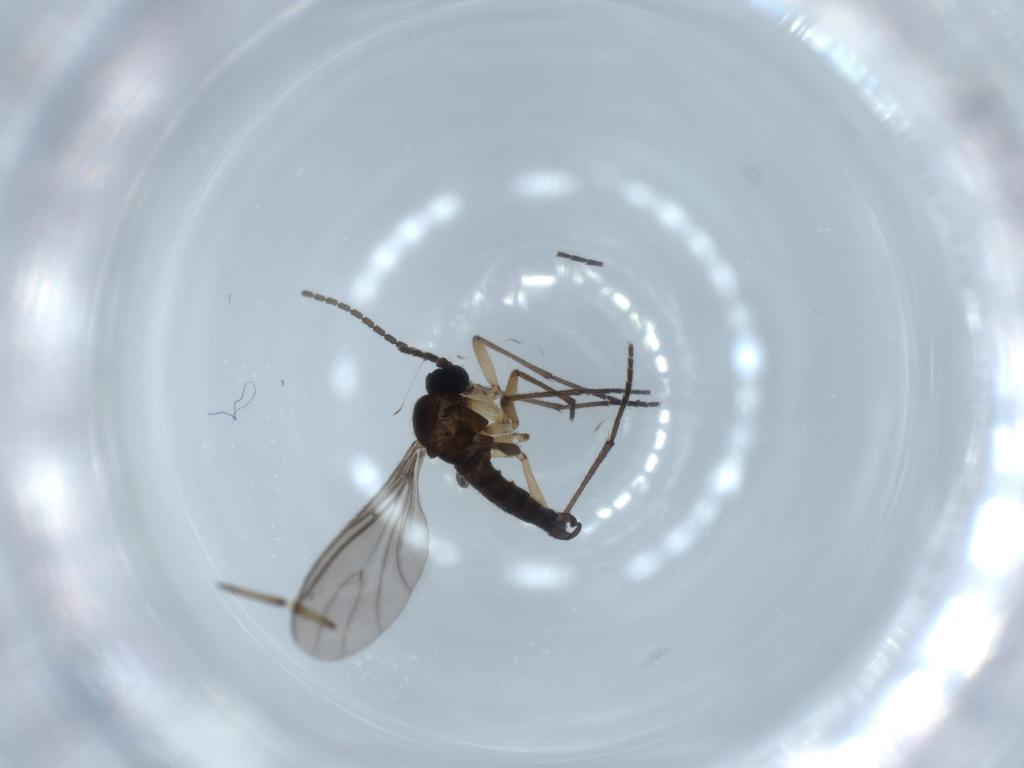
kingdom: Animalia
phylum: Arthropoda
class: Insecta
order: Diptera
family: Sciaridae
